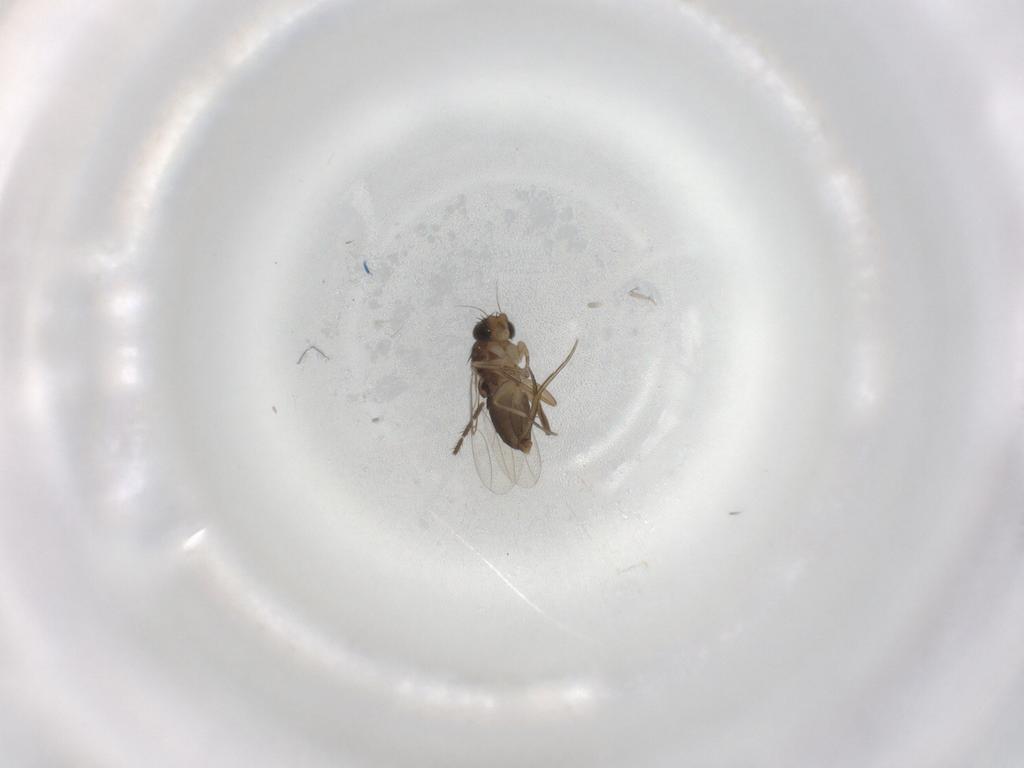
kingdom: Animalia
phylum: Arthropoda
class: Insecta
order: Diptera
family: Phoridae
